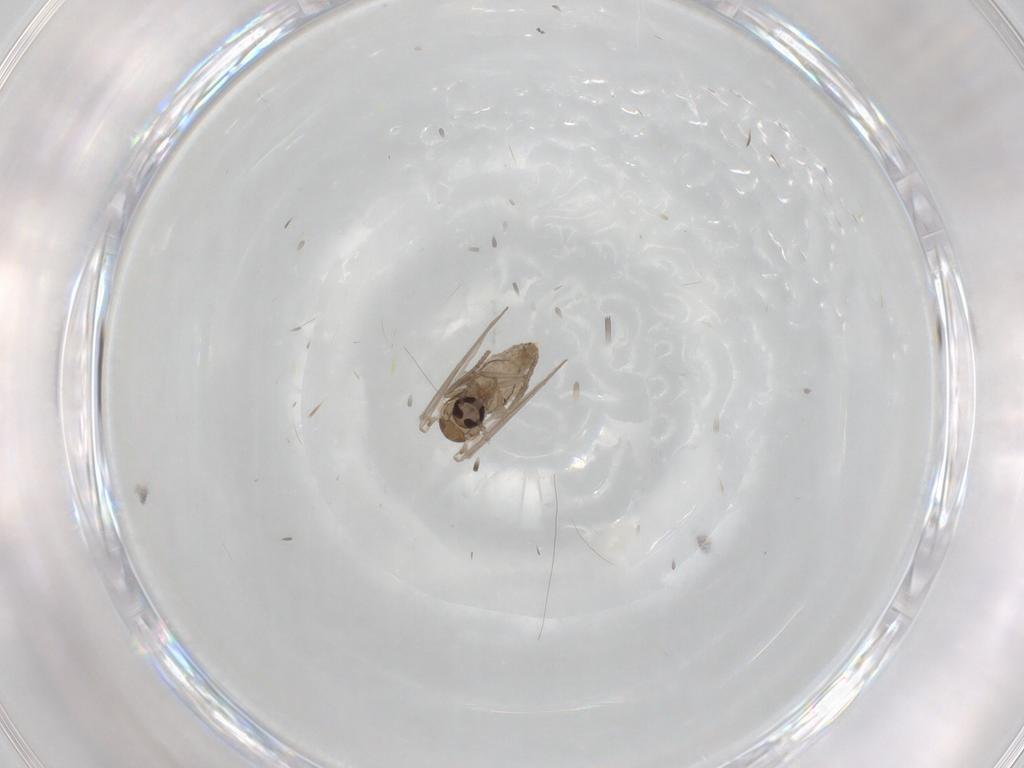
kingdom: Animalia
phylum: Arthropoda
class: Insecta
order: Diptera
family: Psychodidae
